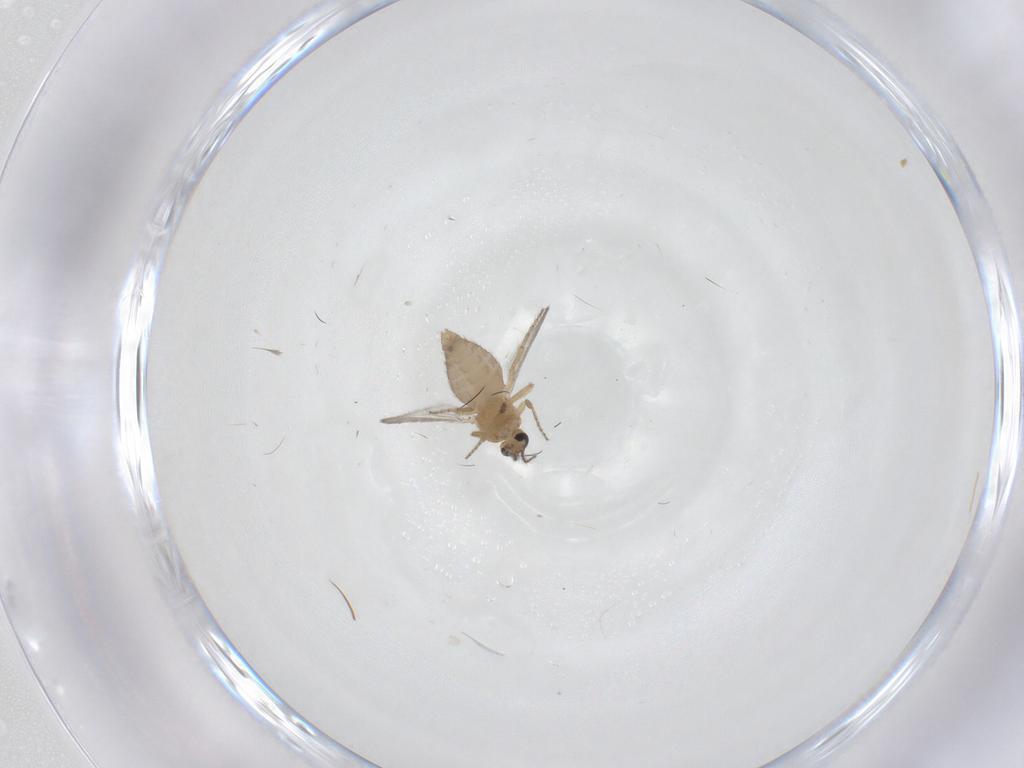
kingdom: Animalia
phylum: Arthropoda
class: Insecta
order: Diptera
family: Ceratopogonidae
